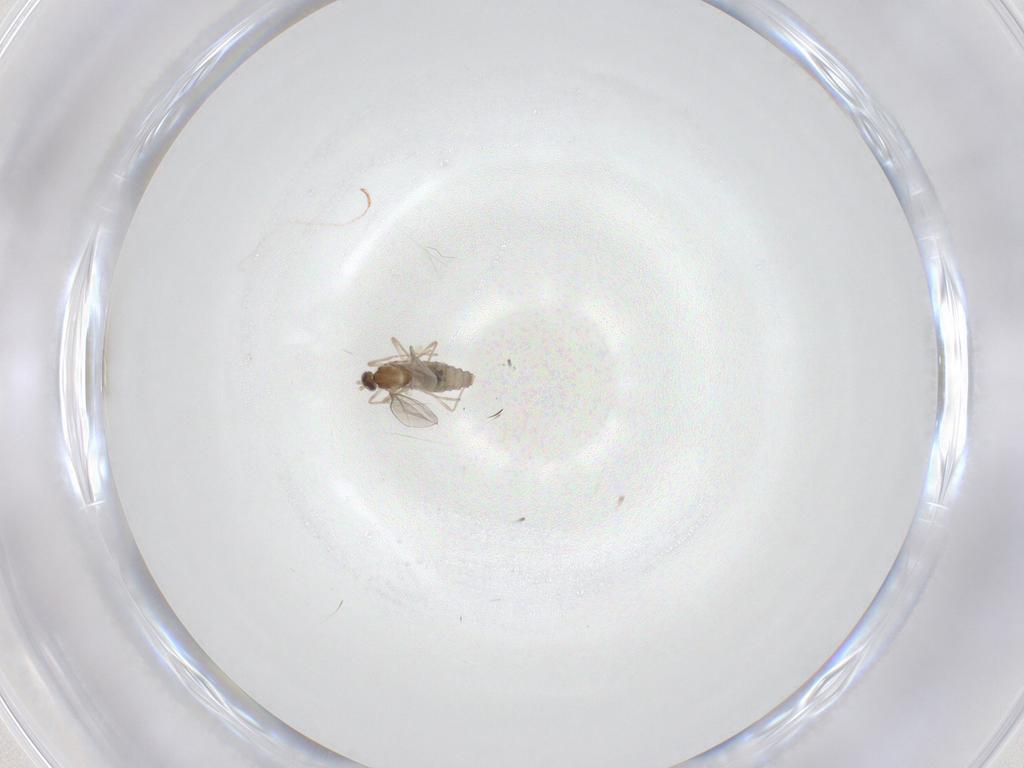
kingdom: Animalia
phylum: Arthropoda
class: Insecta
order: Diptera
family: Cecidomyiidae
